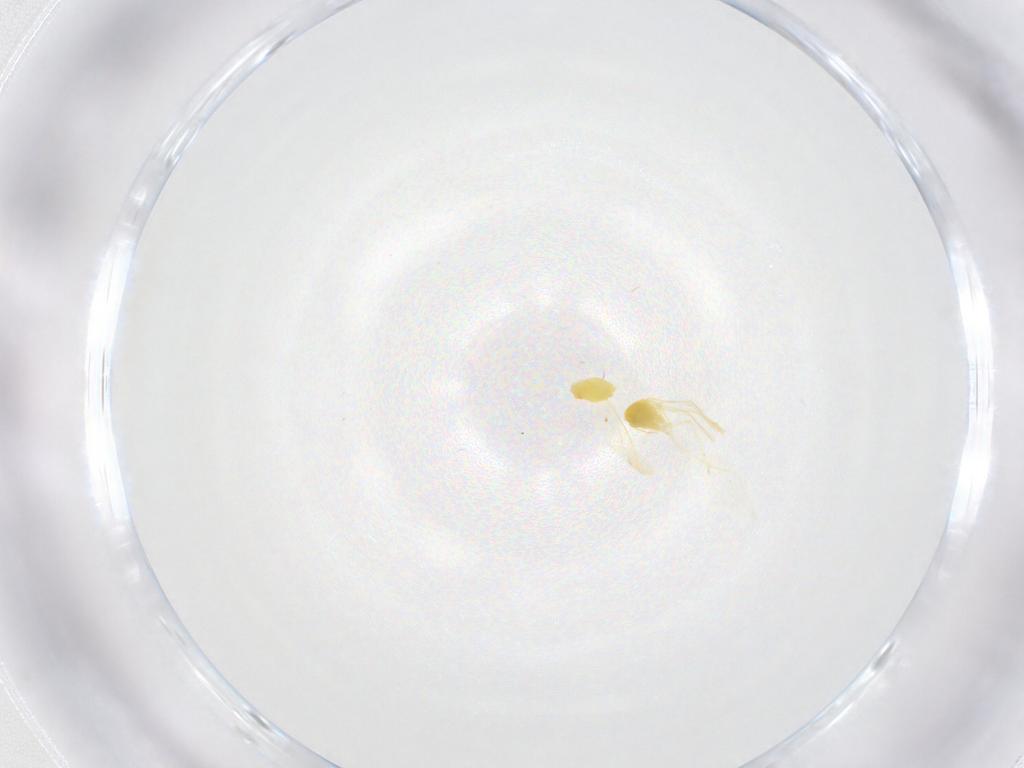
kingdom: Animalia
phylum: Arthropoda
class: Insecta
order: Hemiptera
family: Aleyrodidae
